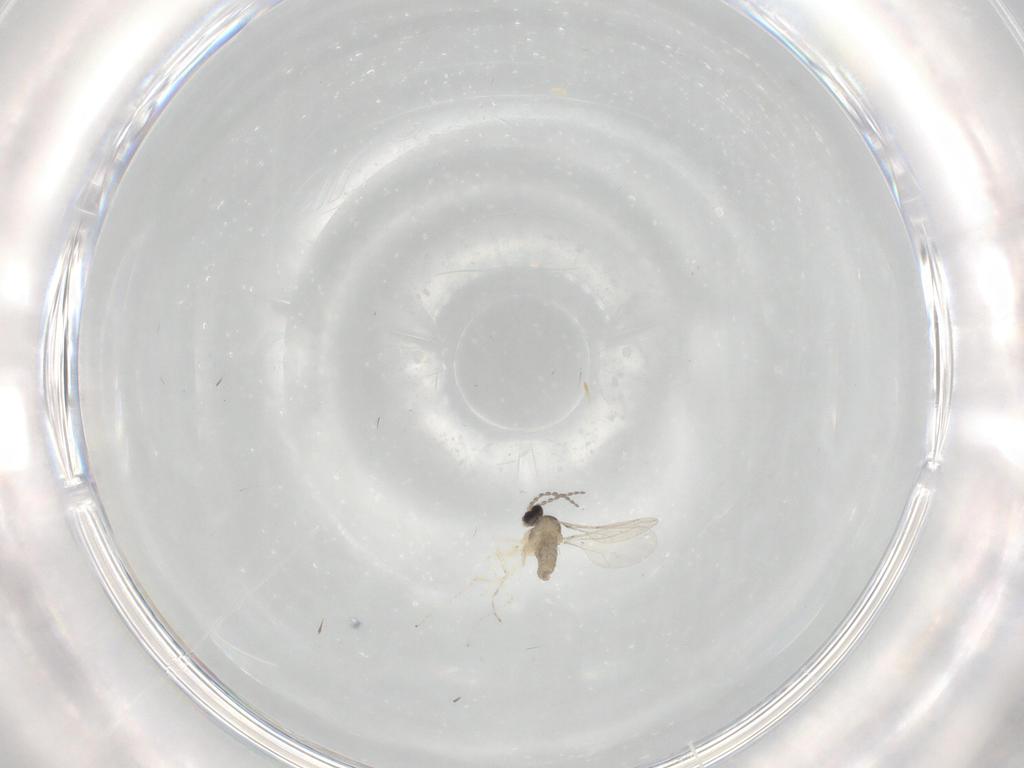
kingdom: Animalia
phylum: Arthropoda
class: Insecta
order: Diptera
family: Cecidomyiidae
